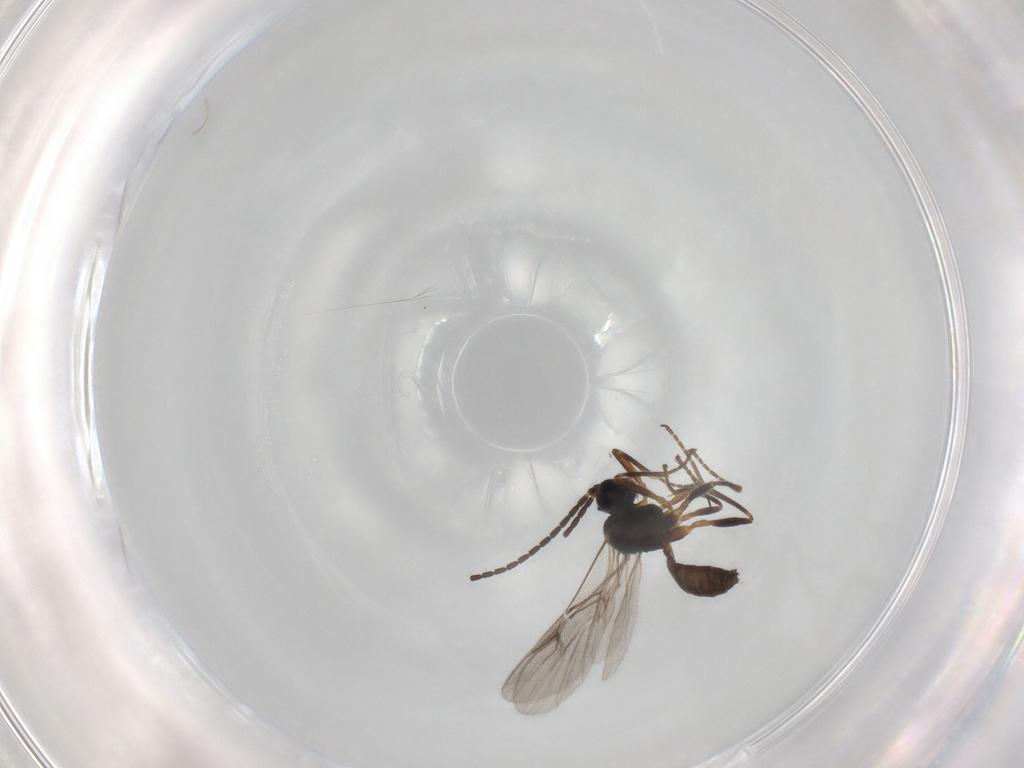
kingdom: Animalia
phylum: Arthropoda
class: Insecta
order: Hymenoptera
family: Braconidae
